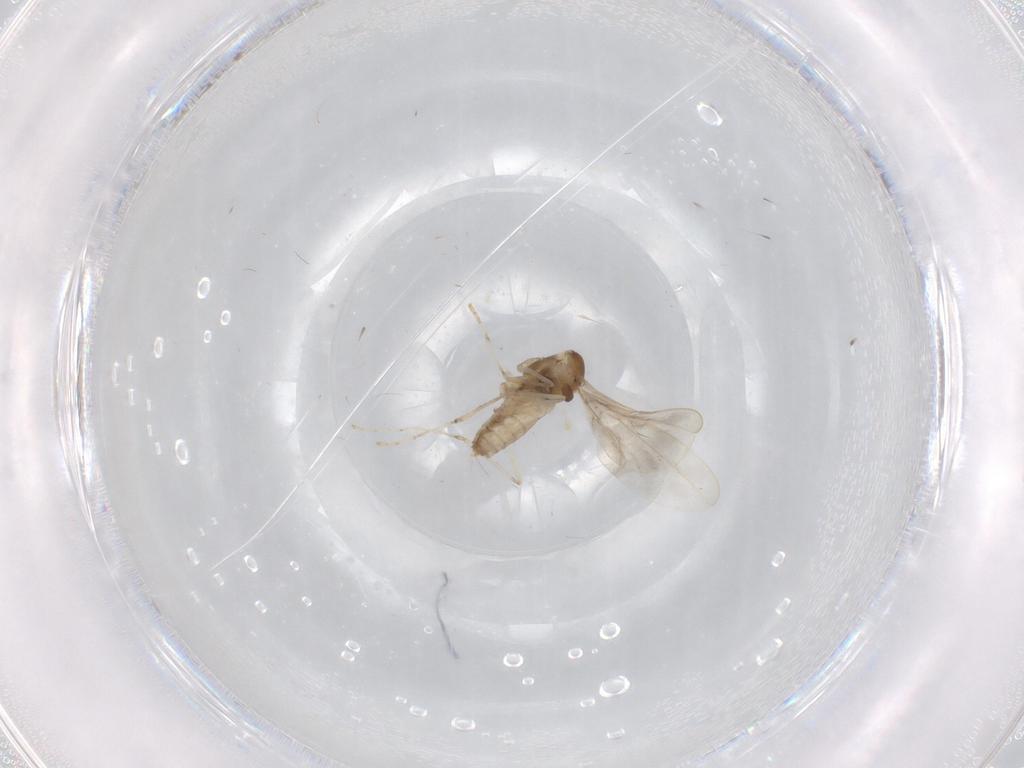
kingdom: Animalia
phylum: Arthropoda
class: Insecta
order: Diptera
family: Cecidomyiidae
